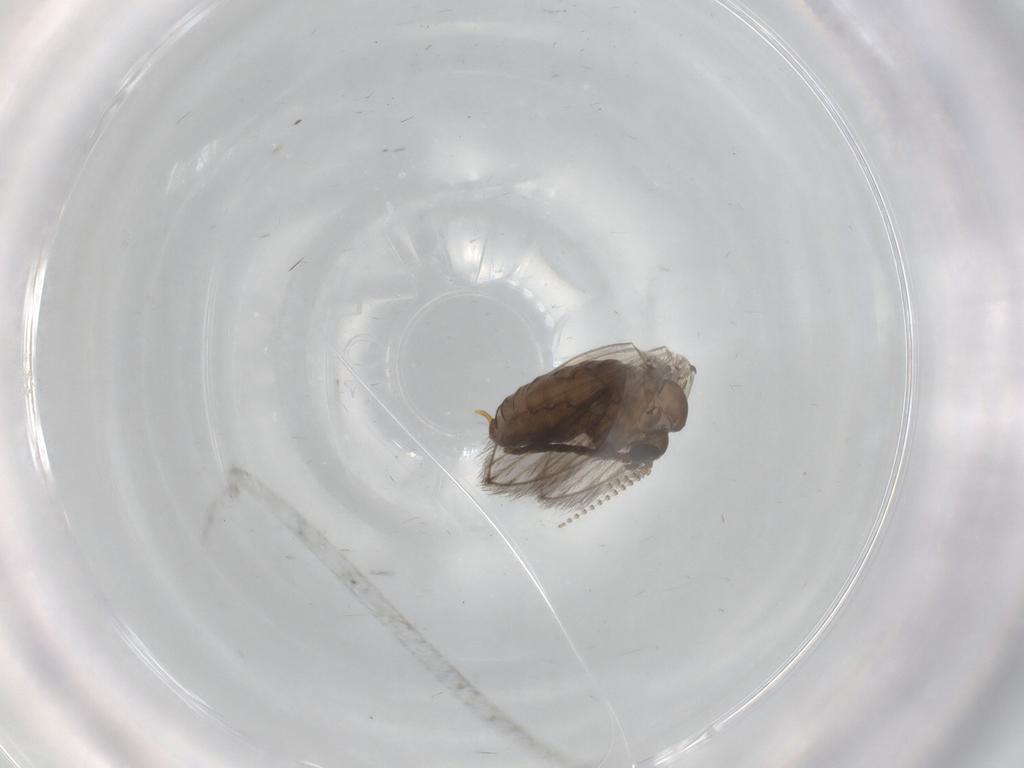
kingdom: Animalia
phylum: Arthropoda
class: Insecta
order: Diptera
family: Psychodidae
